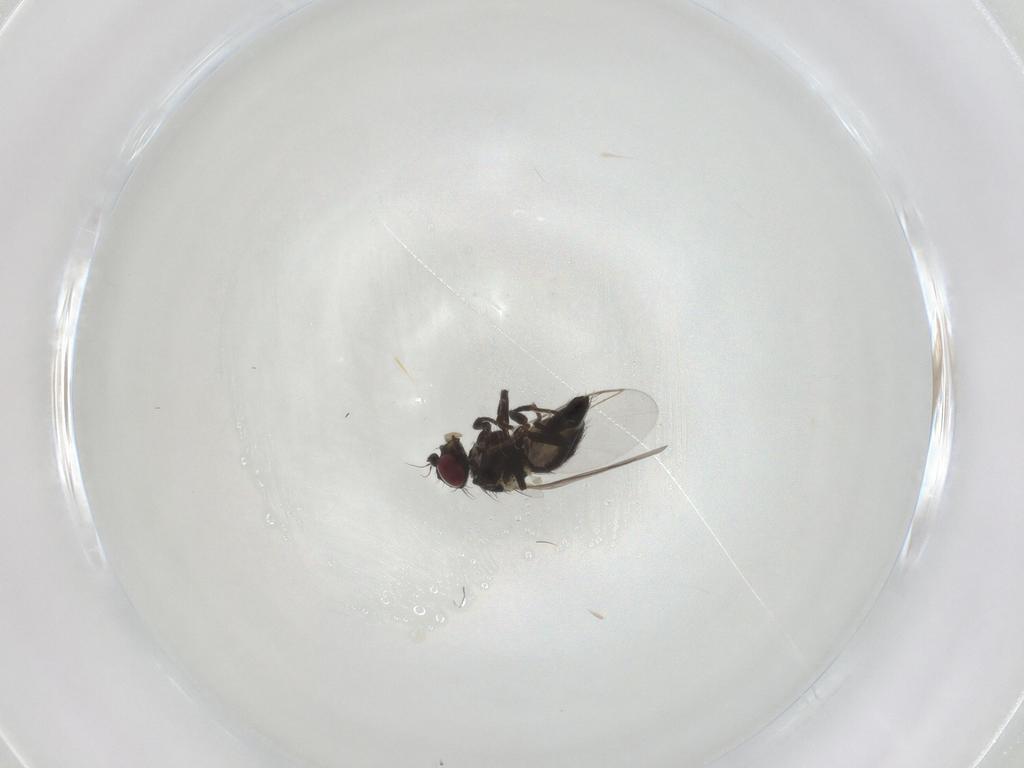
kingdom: Animalia
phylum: Arthropoda
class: Insecta
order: Diptera
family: Agromyzidae
